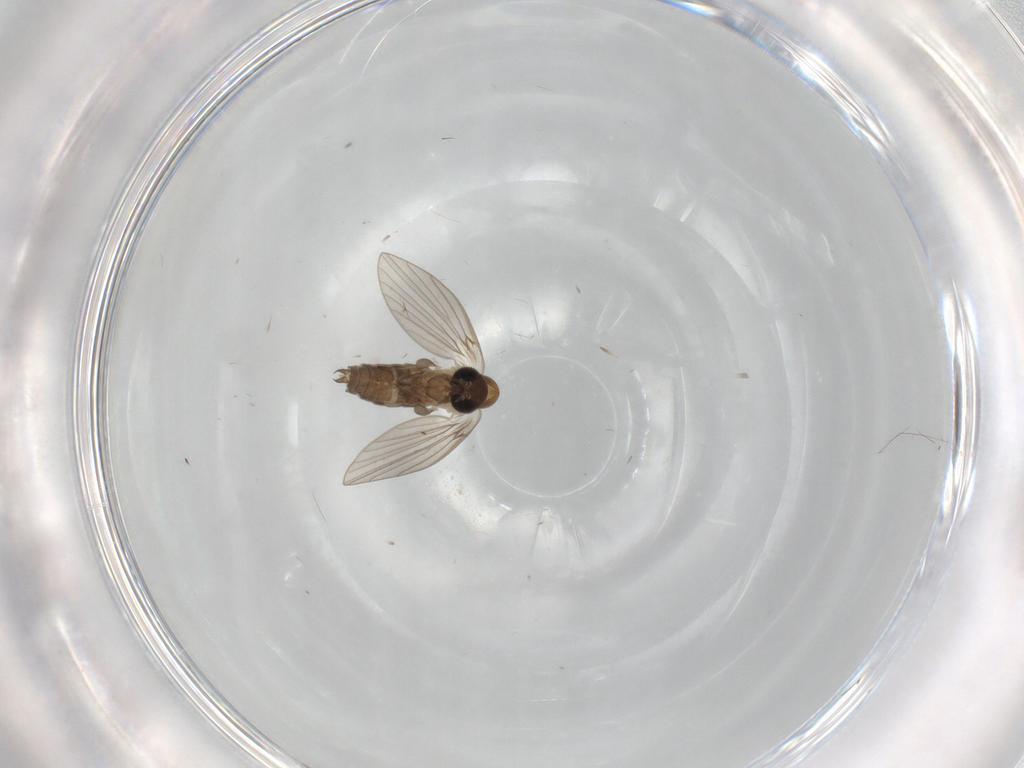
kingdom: Animalia
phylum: Arthropoda
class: Insecta
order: Diptera
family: Psychodidae
